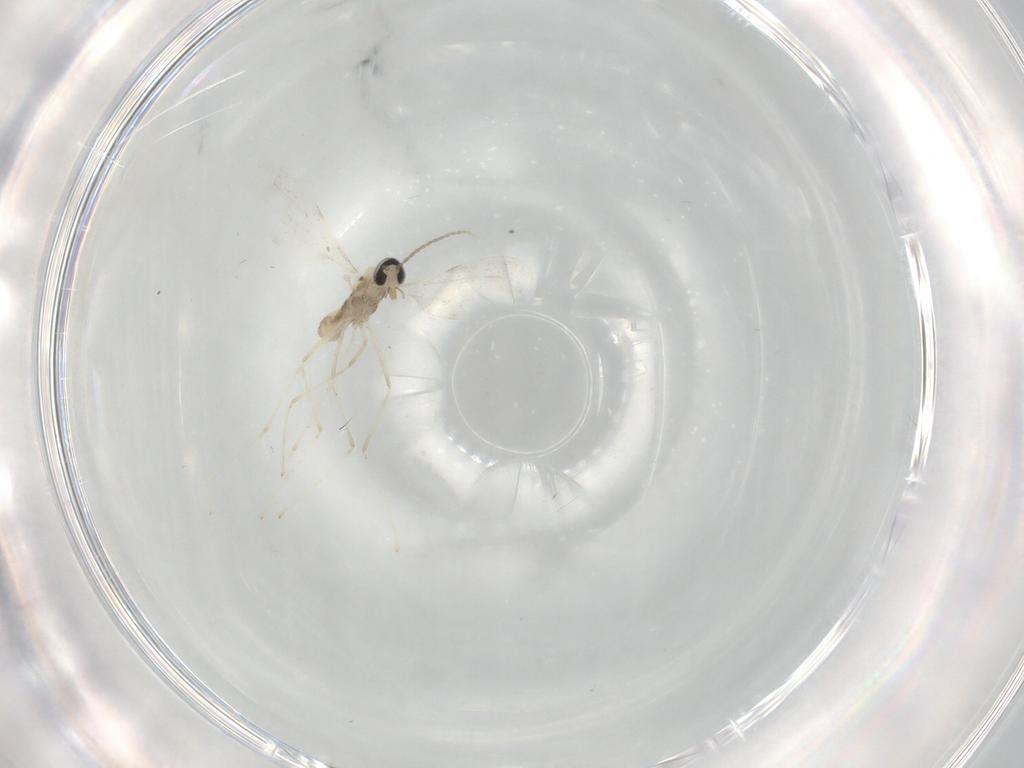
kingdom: Animalia
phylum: Arthropoda
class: Insecta
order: Diptera
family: Cecidomyiidae
